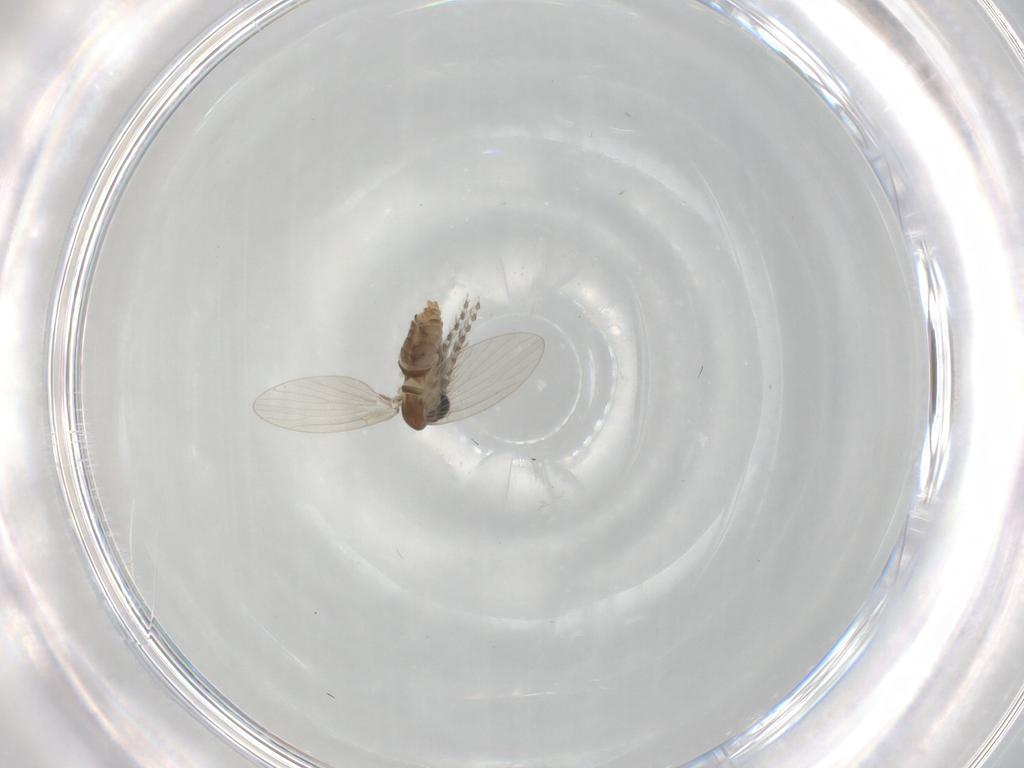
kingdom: Animalia
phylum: Arthropoda
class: Insecta
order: Diptera
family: Psychodidae
